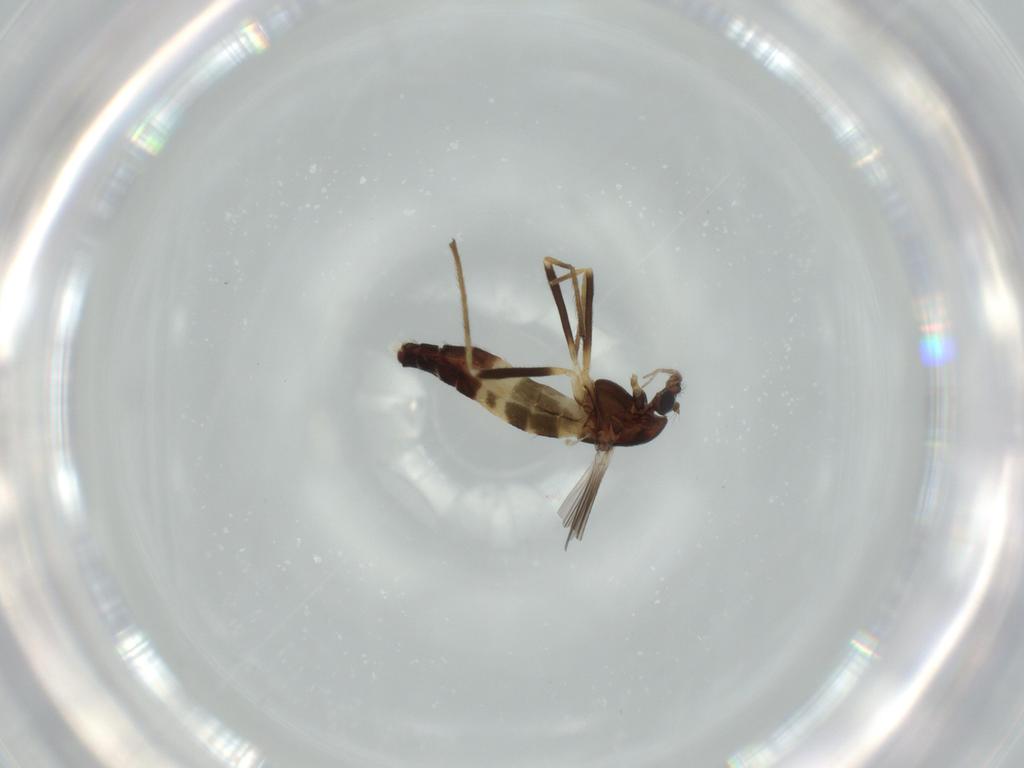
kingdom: Animalia
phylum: Arthropoda
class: Insecta
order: Diptera
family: Chironomidae
